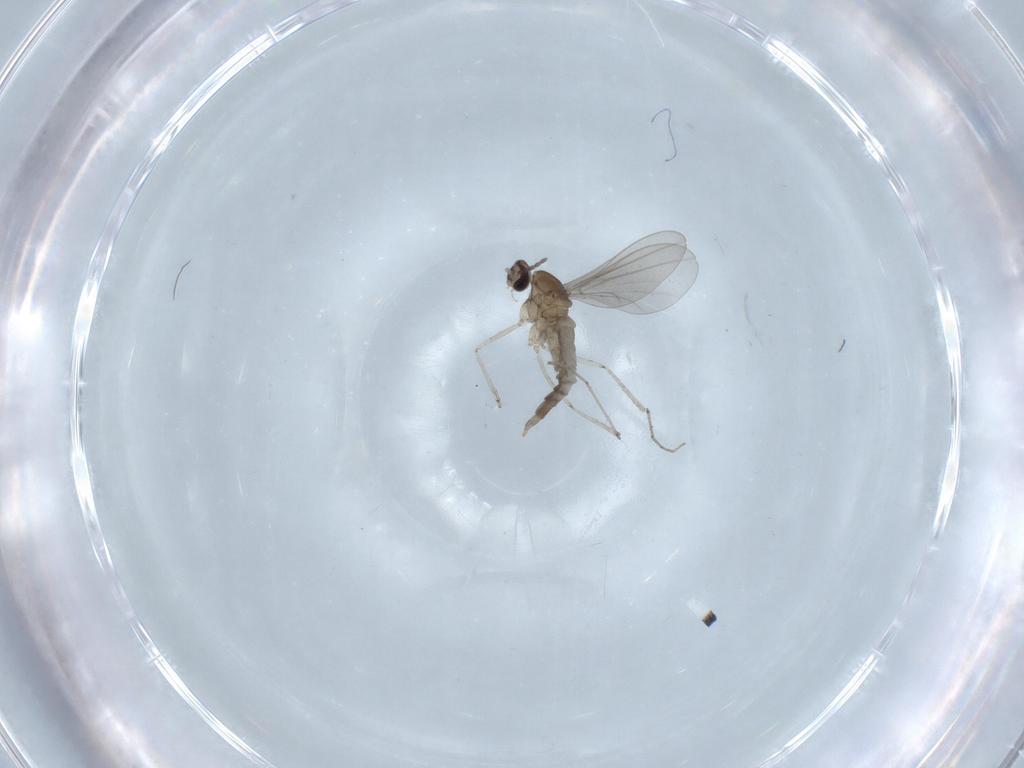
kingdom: Animalia
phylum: Arthropoda
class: Insecta
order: Diptera
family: Cecidomyiidae
